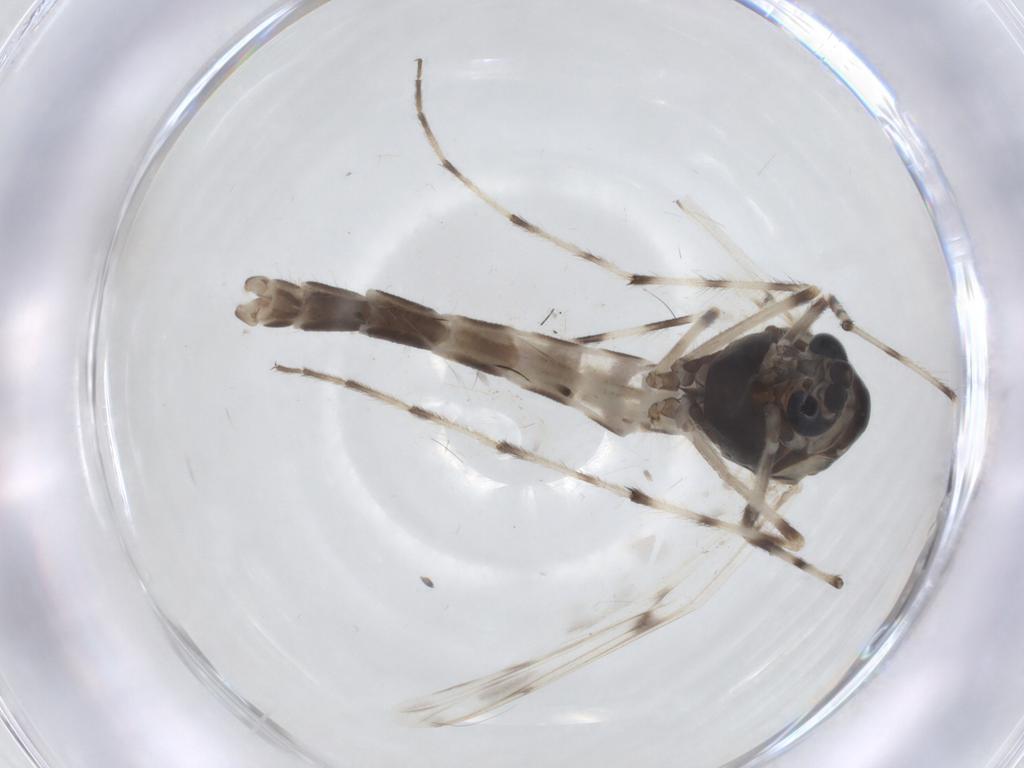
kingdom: Animalia
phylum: Arthropoda
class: Insecta
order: Diptera
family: Chironomidae
